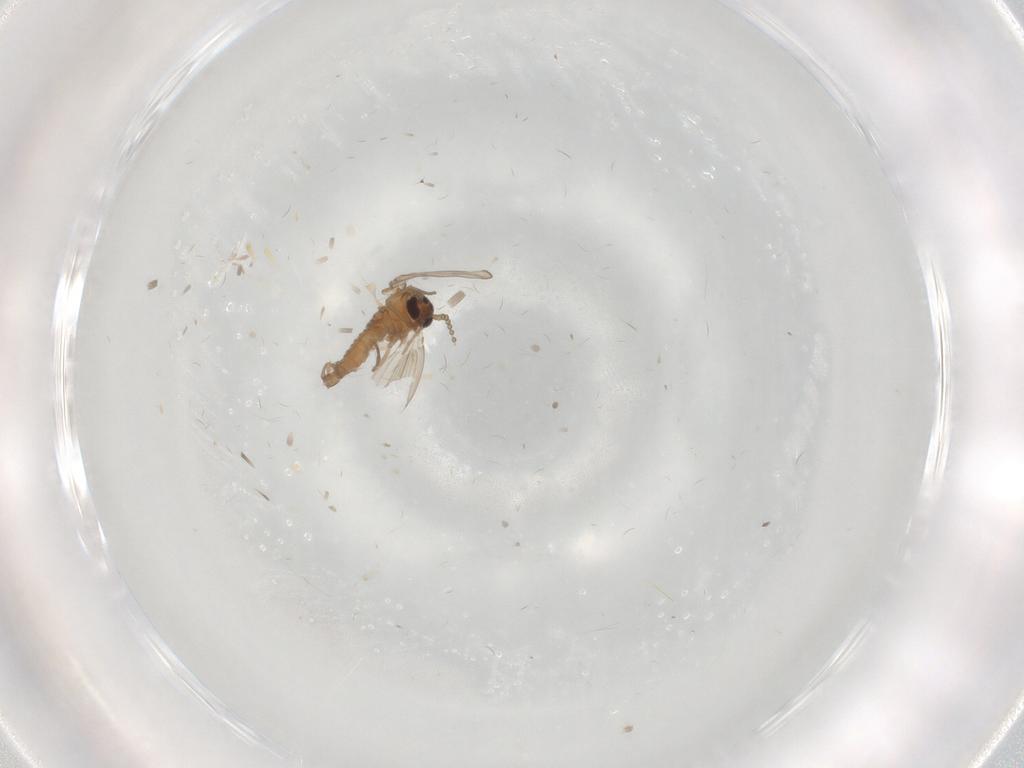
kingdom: Animalia
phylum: Arthropoda
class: Insecta
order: Diptera
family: Psychodidae
